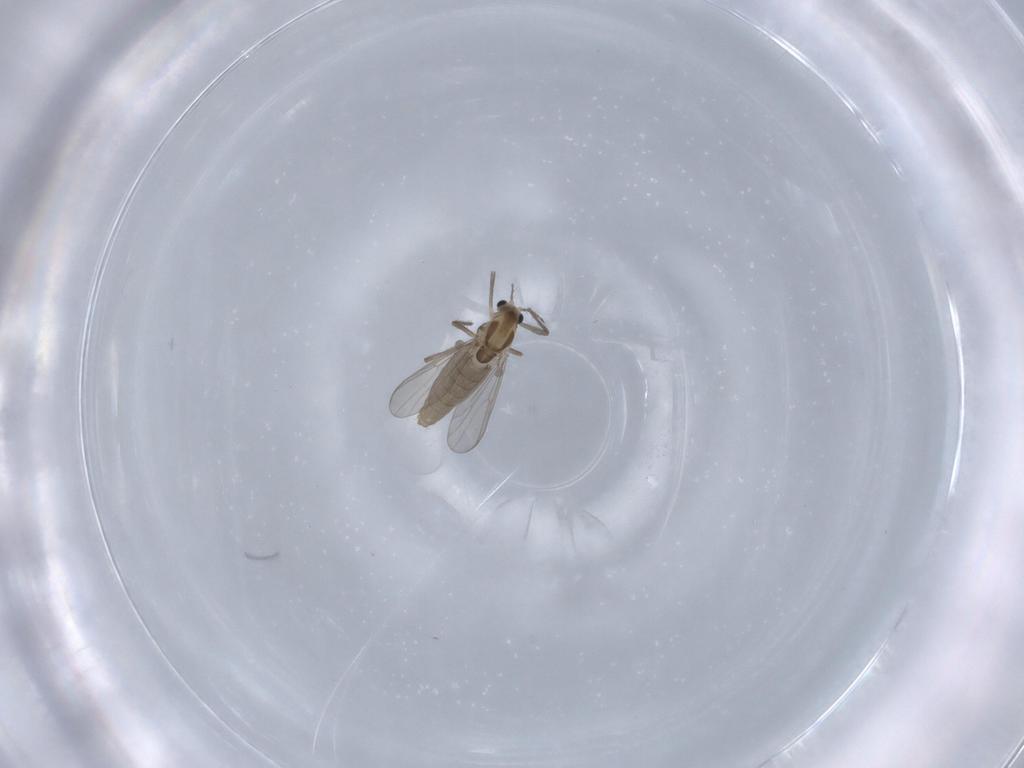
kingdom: Animalia
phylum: Arthropoda
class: Insecta
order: Diptera
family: Chironomidae
